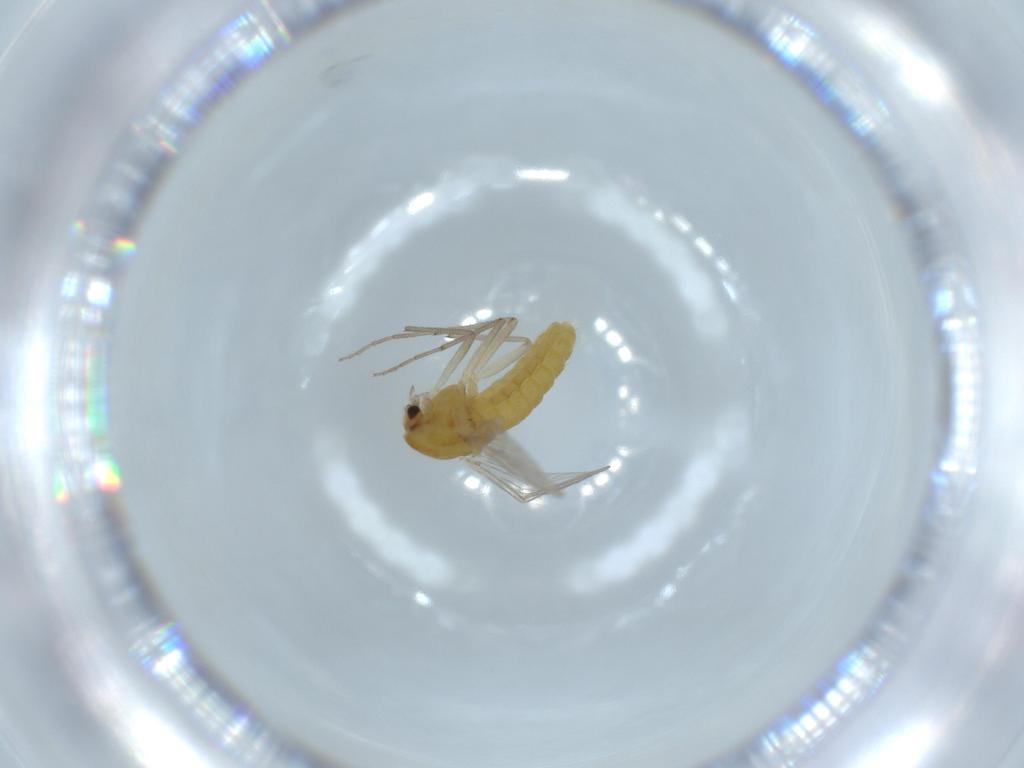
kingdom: Animalia
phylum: Arthropoda
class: Insecta
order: Diptera
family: Chironomidae
